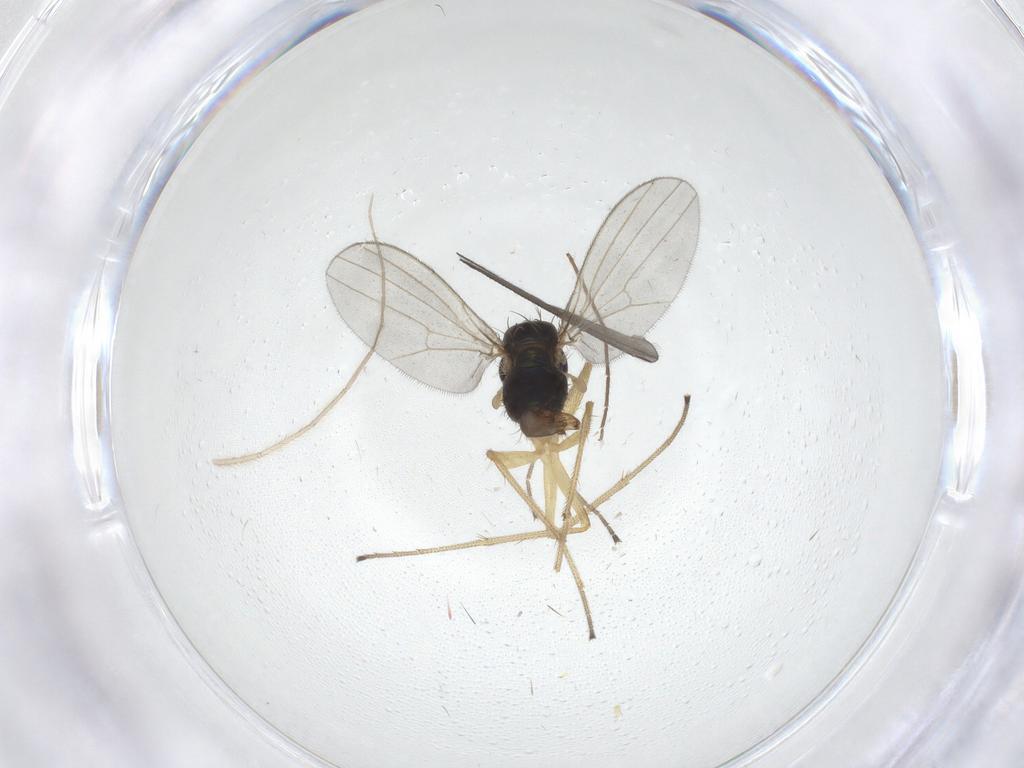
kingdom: Animalia
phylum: Arthropoda
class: Insecta
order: Diptera
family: Dolichopodidae
